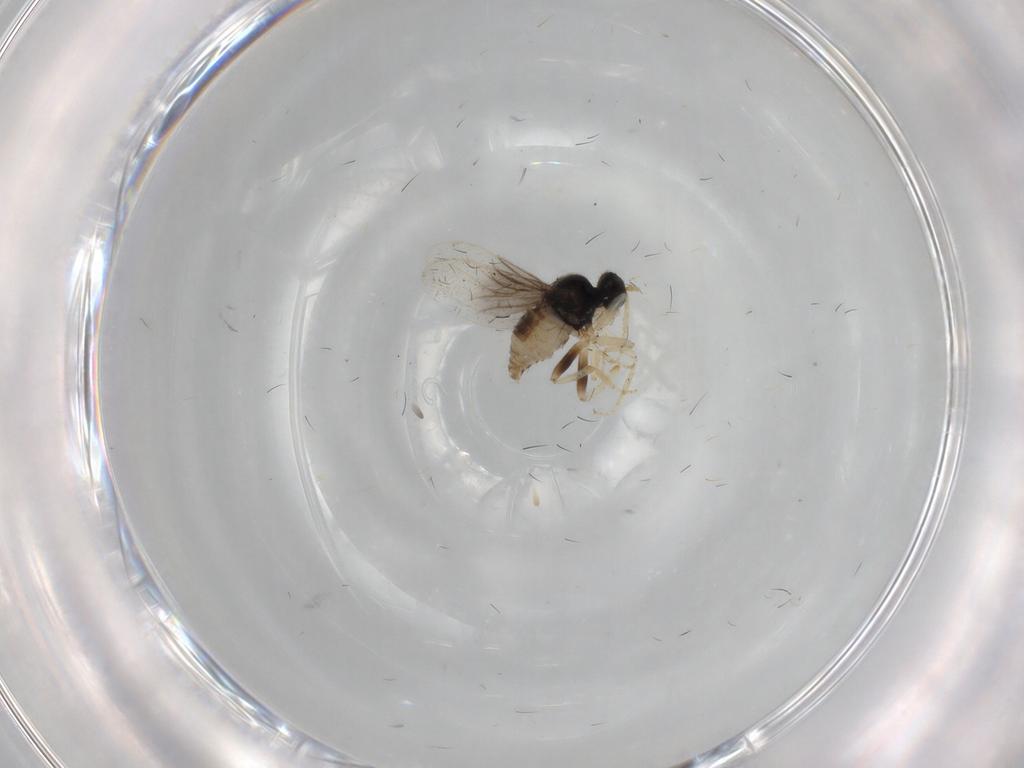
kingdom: Animalia
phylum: Arthropoda
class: Insecta
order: Diptera
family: Hybotidae
